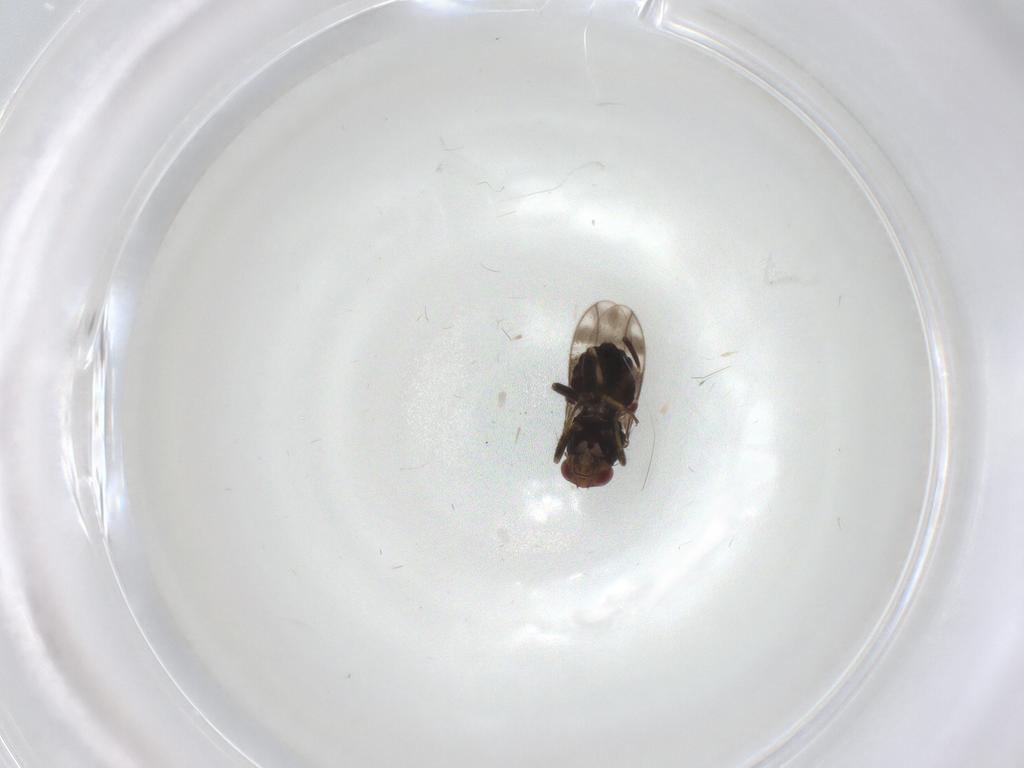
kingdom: Animalia
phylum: Arthropoda
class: Insecta
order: Diptera
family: Sphaeroceridae
